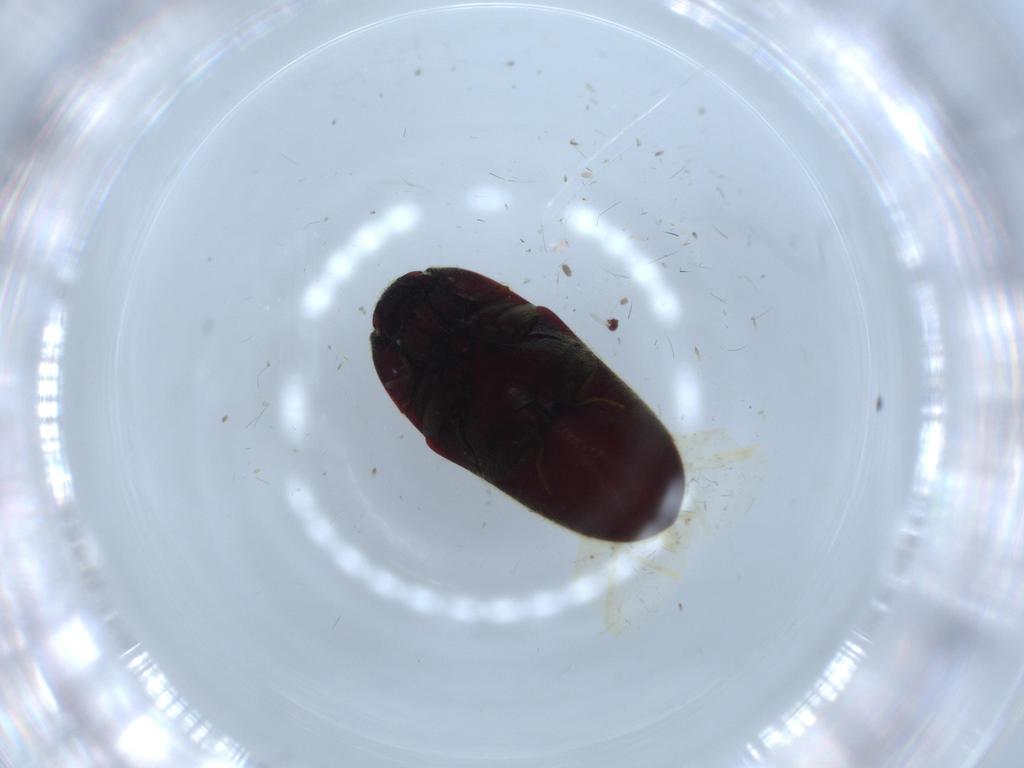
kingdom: Animalia
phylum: Arthropoda
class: Insecta
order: Coleoptera
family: Throscidae
